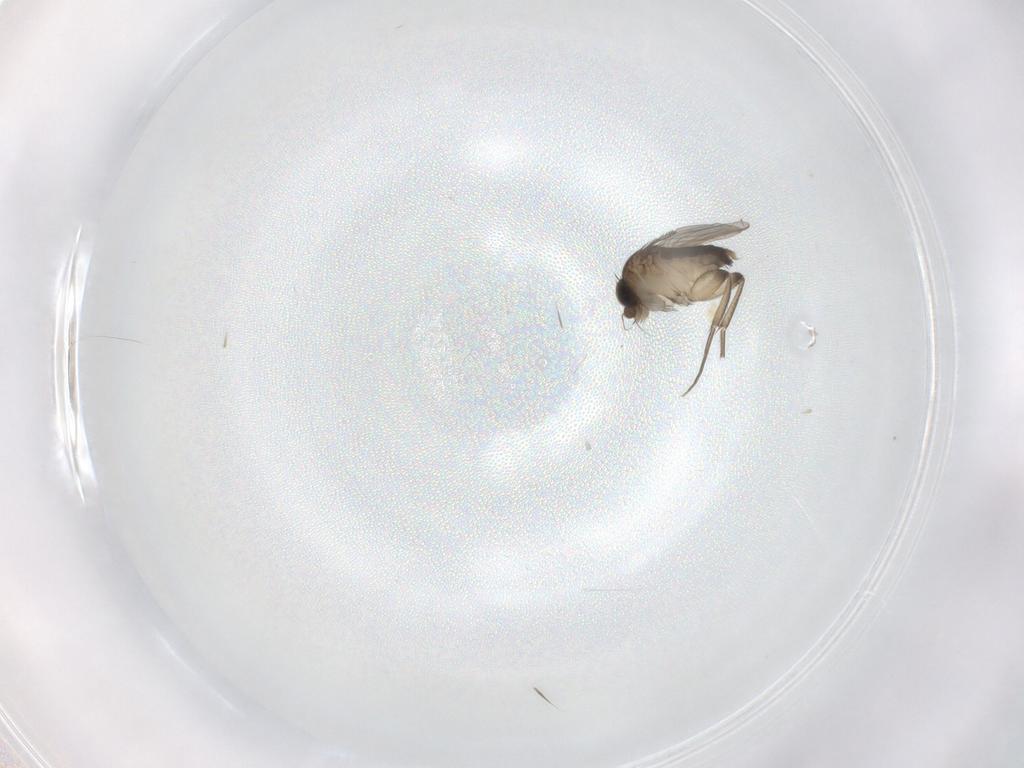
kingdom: Animalia
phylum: Arthropoda
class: Insecta
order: Diptera
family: Phoridae
